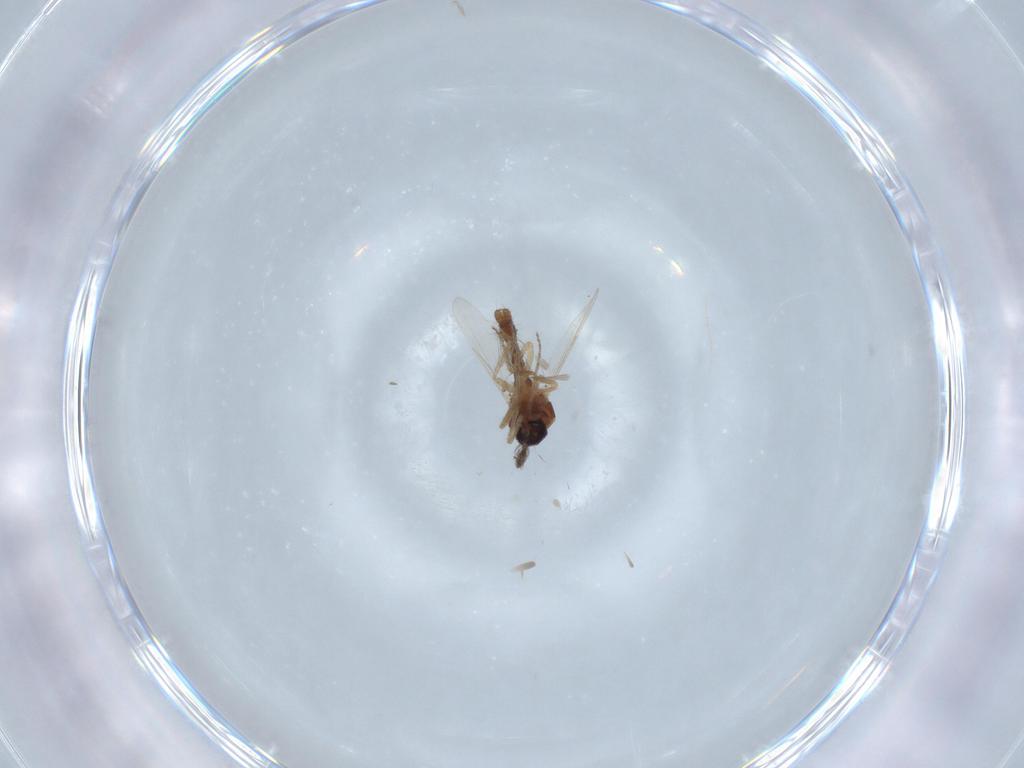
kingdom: Animalia
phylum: Arthropoda
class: Insecta
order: Diptera
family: Ceratopogonidae
